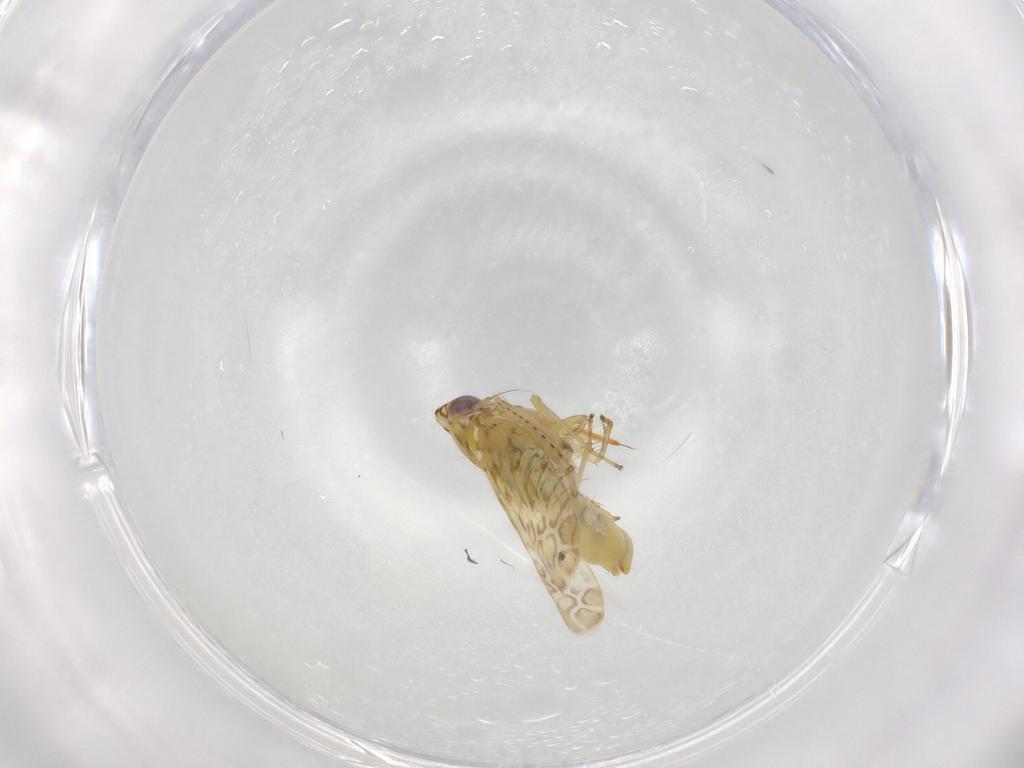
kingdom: Animalia
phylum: Arthropoda
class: Insecta
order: Hemiptera
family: Cicadellidae
